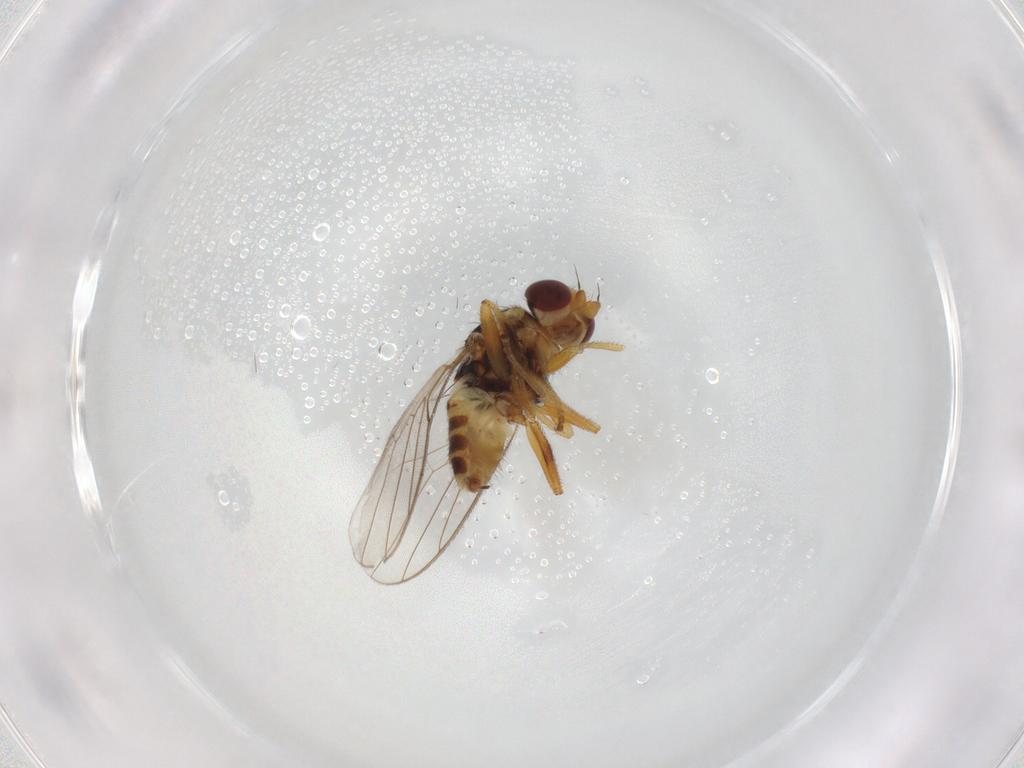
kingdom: Animalia
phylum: Arthropoda
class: Insecta
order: Diptera
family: Chloropidae
